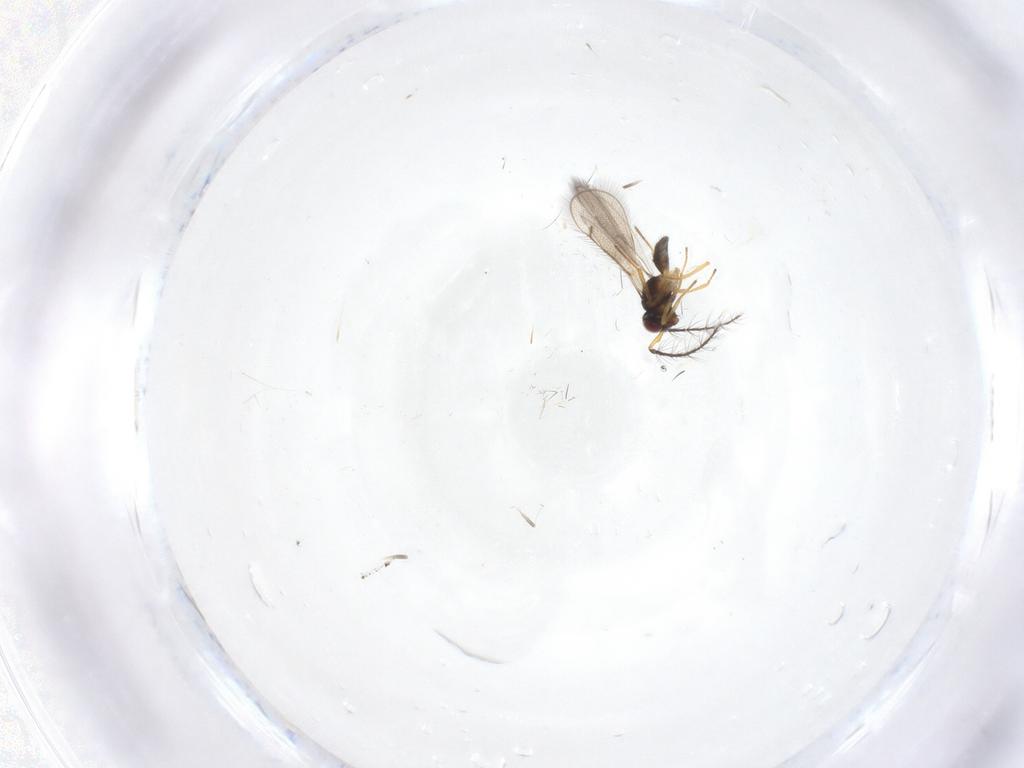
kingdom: Animalia
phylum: Arthropoda
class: Insecta
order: Hymenoptera
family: Eulophidae
